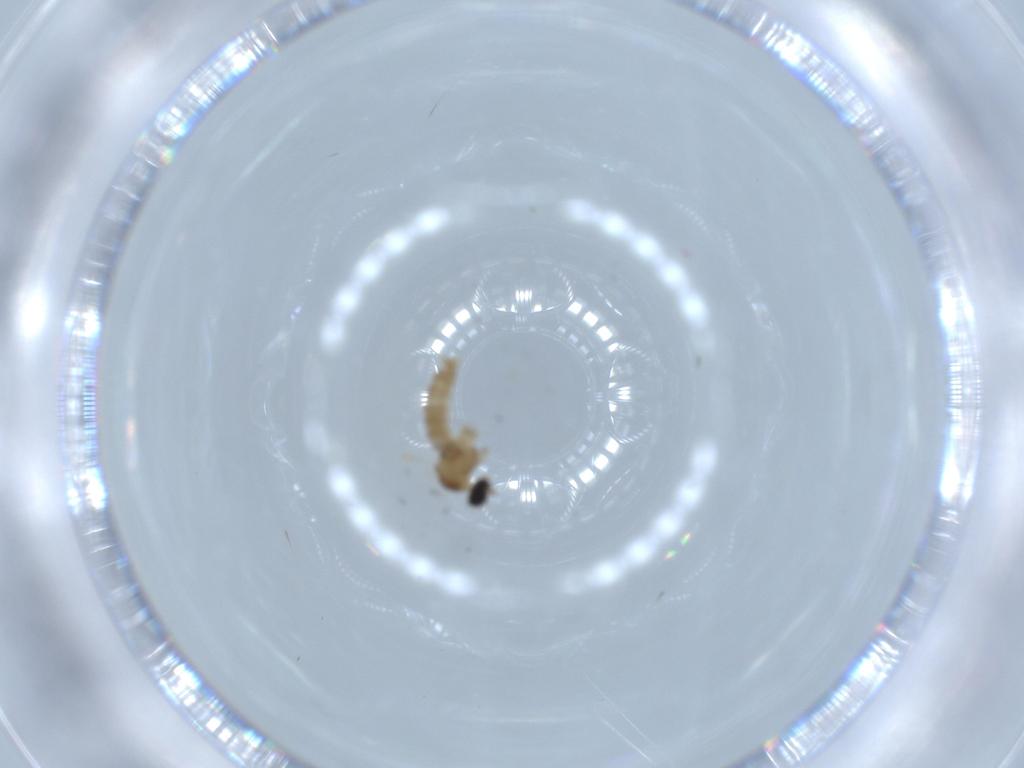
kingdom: Animalia
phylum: Arthropoda
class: Insecta
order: Diptera
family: Cecidomyiidae
